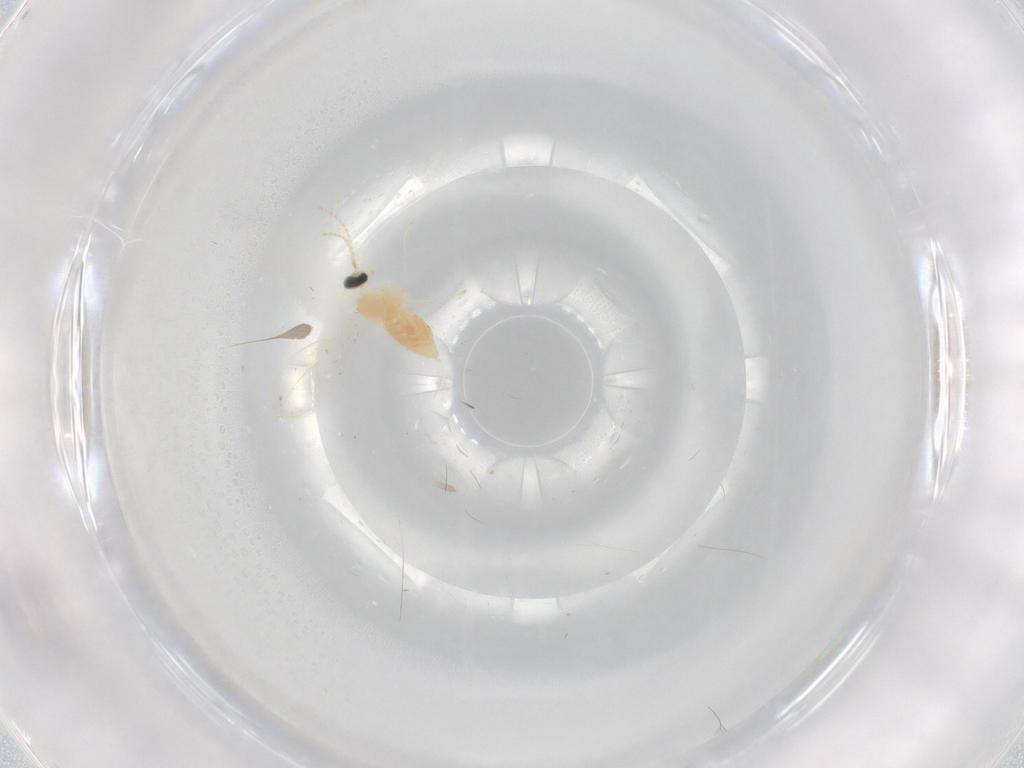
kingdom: Animalia
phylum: Arthropoda
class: Insecta
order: Diptera
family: Cecidomyiidae
